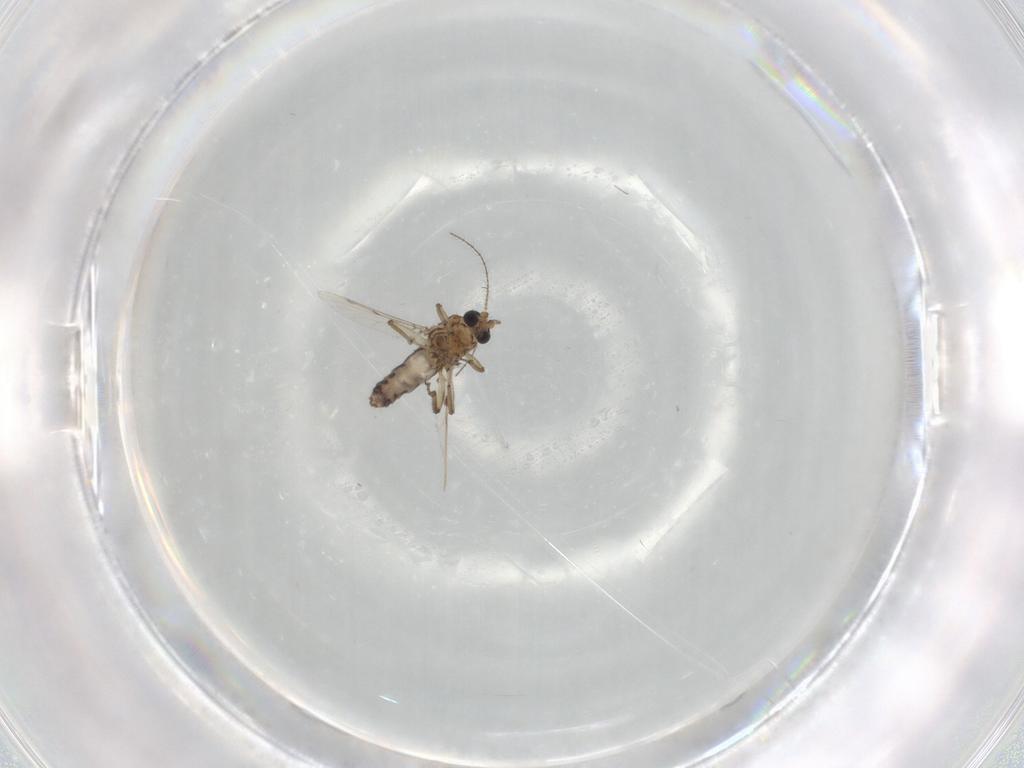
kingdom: Animalia
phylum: Arthropoda
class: Insecta
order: Diptera
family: Ceratopogonidae
